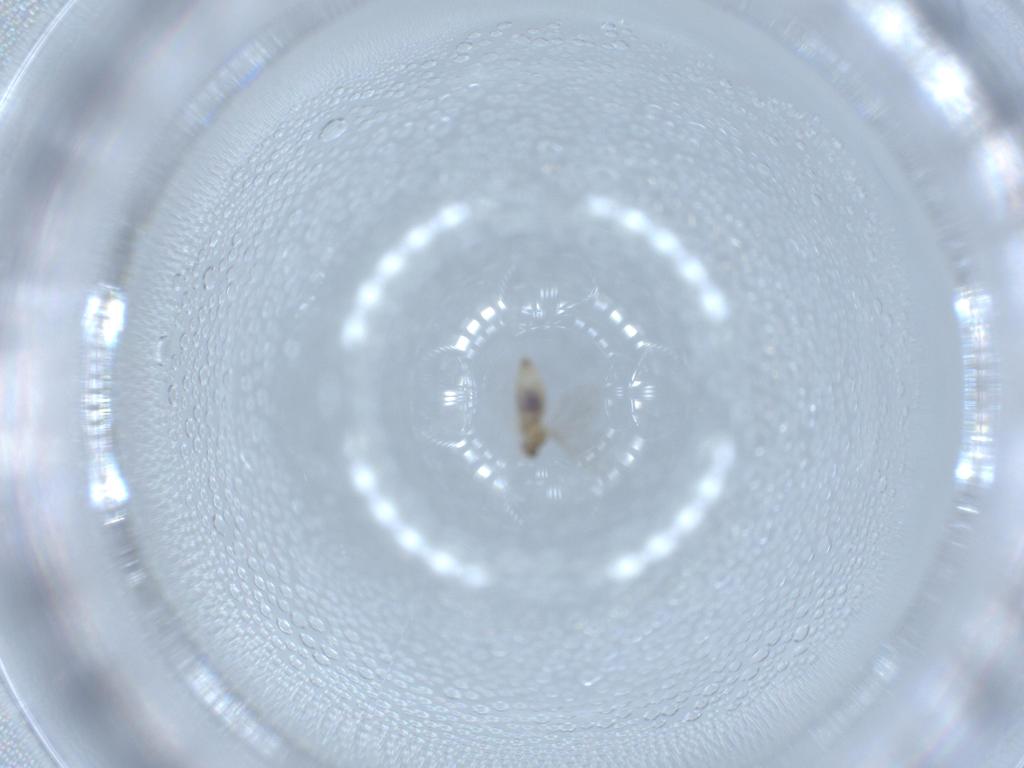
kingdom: Animalia
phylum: Arthropoda
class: Insecta
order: Diptera
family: Cecidomyiidae
